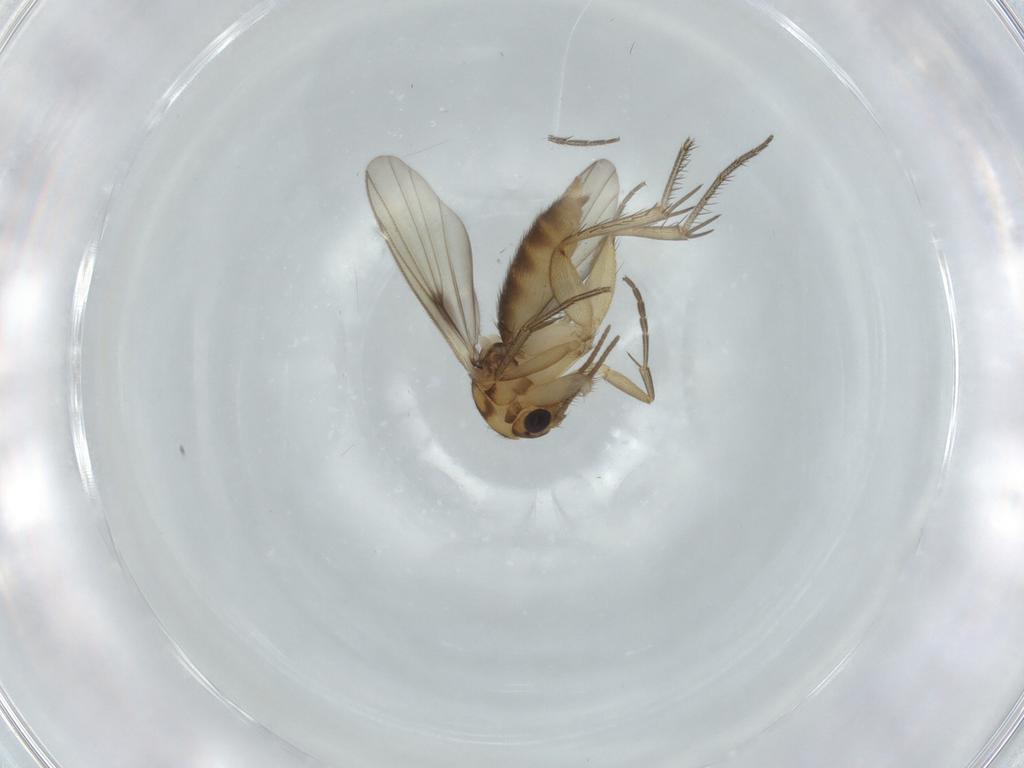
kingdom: Animalia
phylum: Arthropoda
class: Insecta
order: Diptera
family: Mycetophilidae
